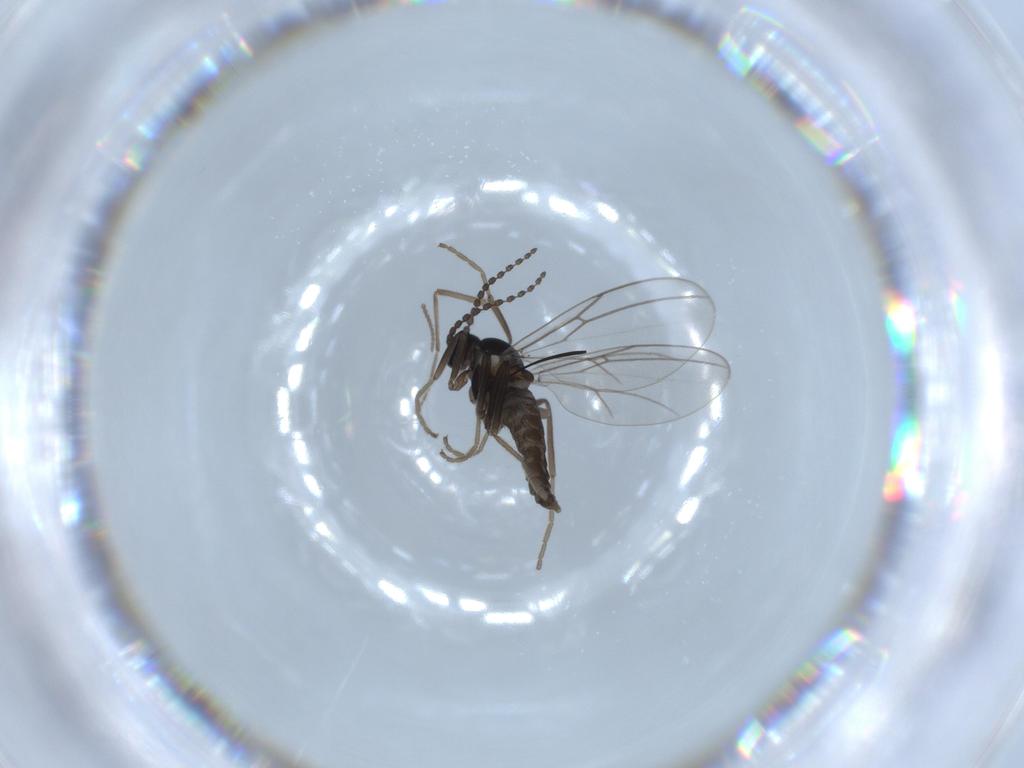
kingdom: Animalia
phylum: Arthropoda
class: Insecta
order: Diptera
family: Cecidomyiidae
